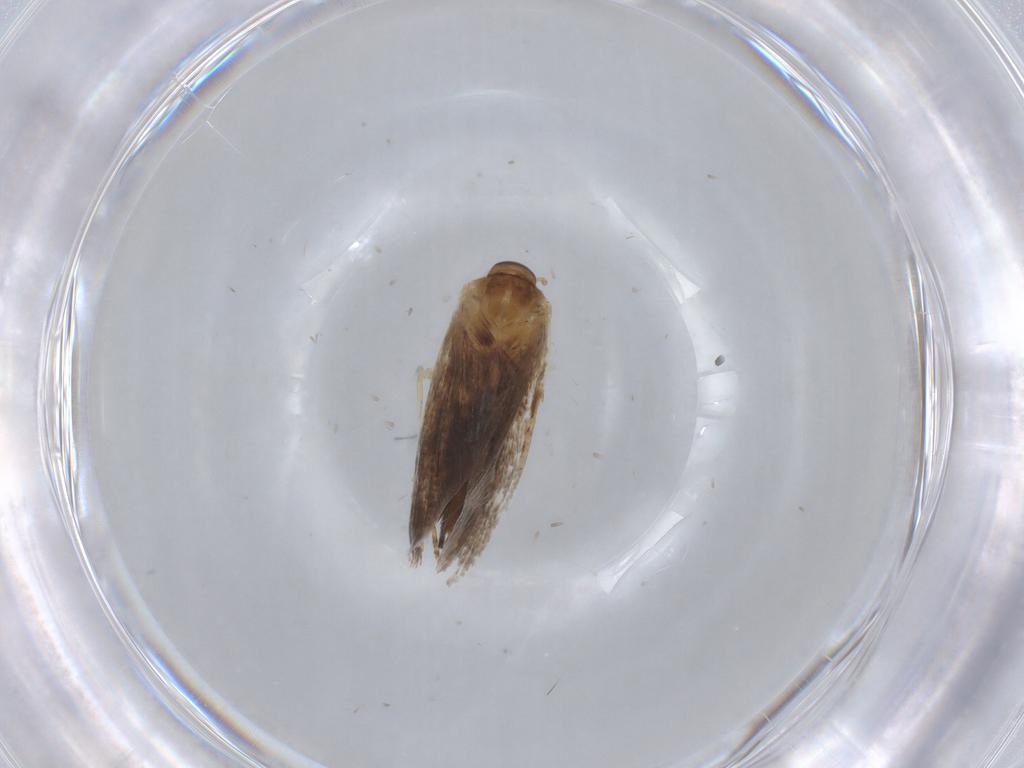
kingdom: Animalia
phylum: Arthropoda
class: Insecta
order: Lepidoptera
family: Oecophoridae
